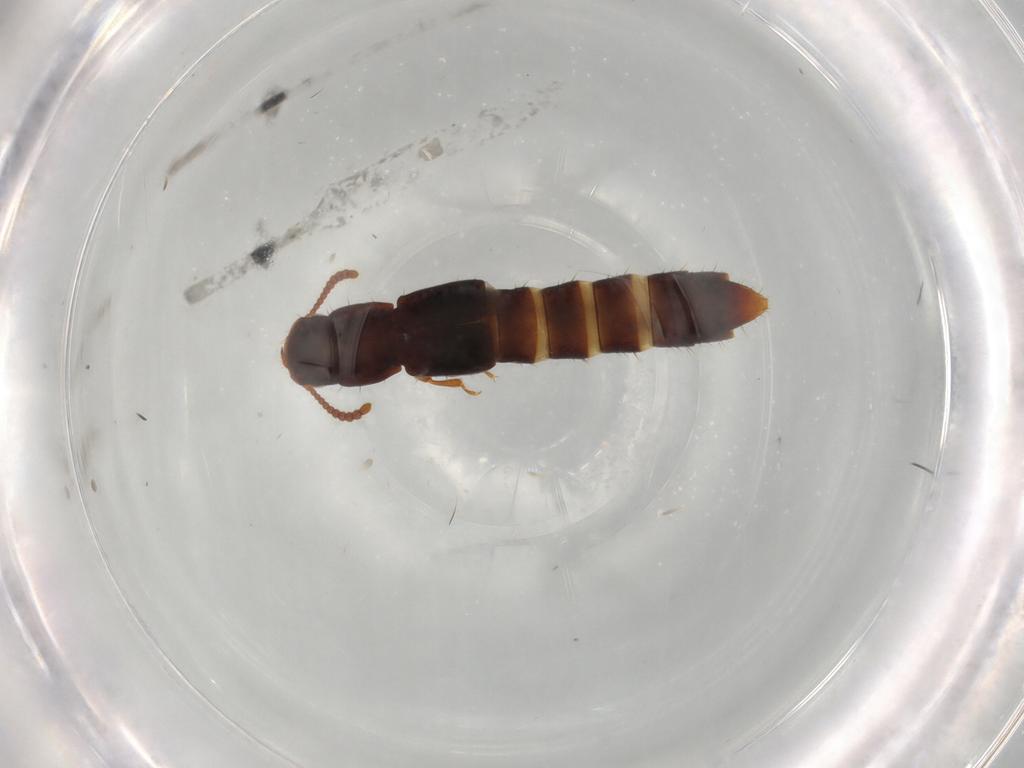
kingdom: Animalia
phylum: Arthropoda
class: Insecta
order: Coleoptera
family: Staphylinidae
